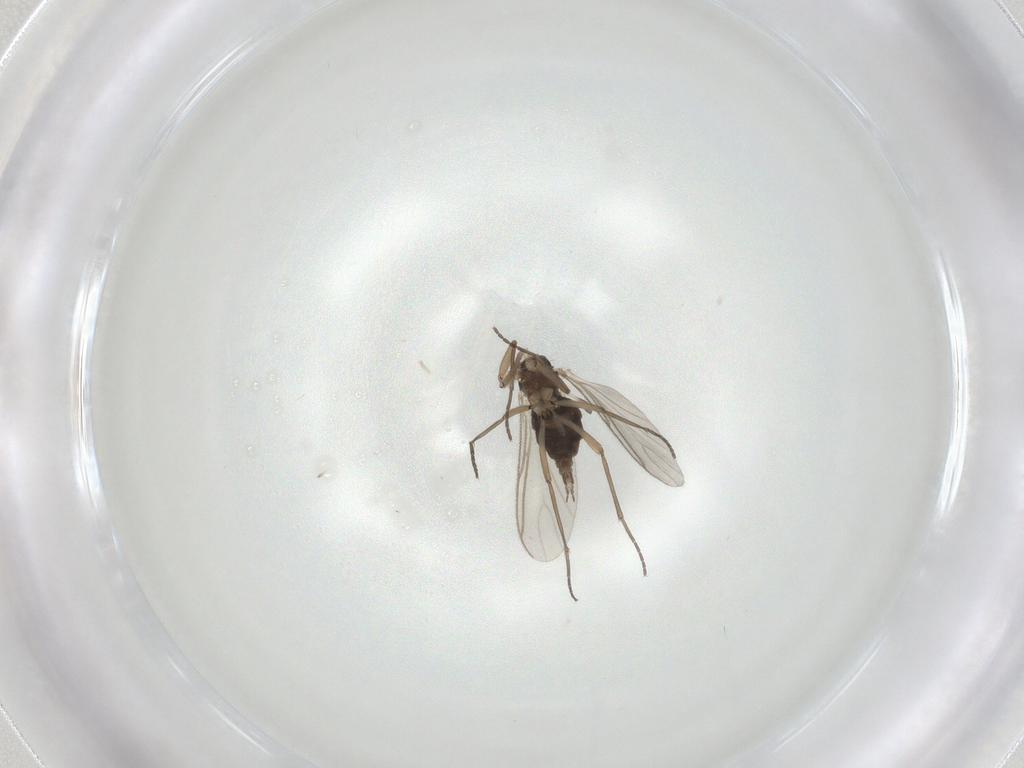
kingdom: Animalia
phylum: Arthropoda
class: Insecta
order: Diptera
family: Sciaridae
